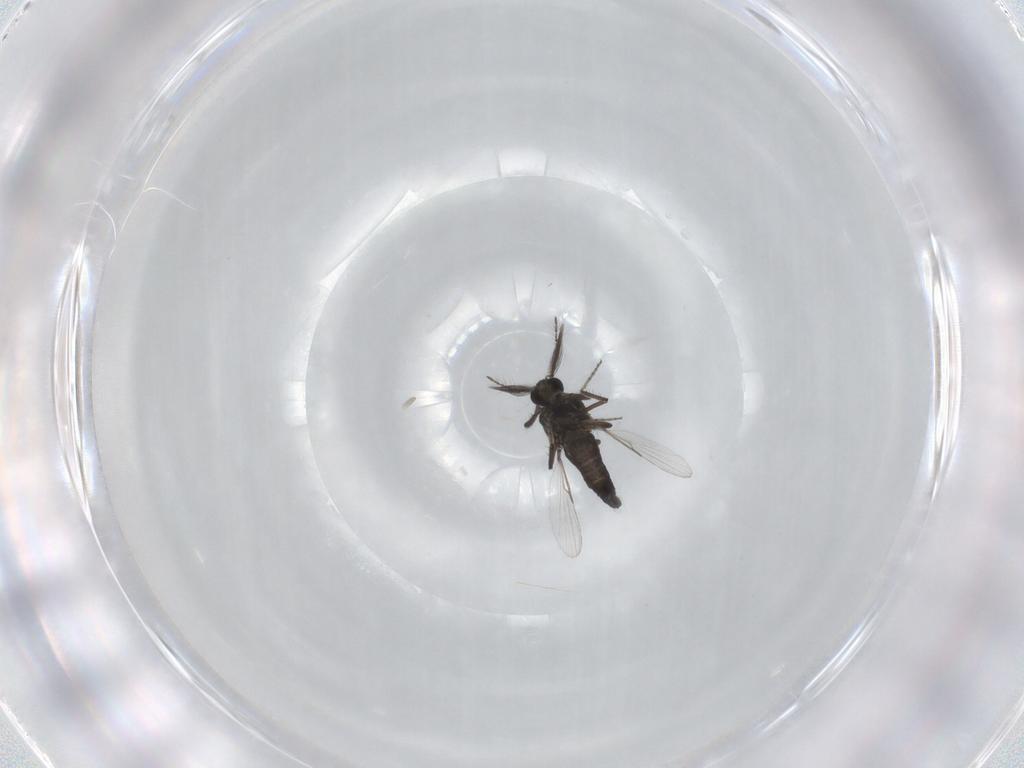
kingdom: Animalia
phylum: Arthropoda
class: Insecta
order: Diptera
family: Ceratopogonidae
